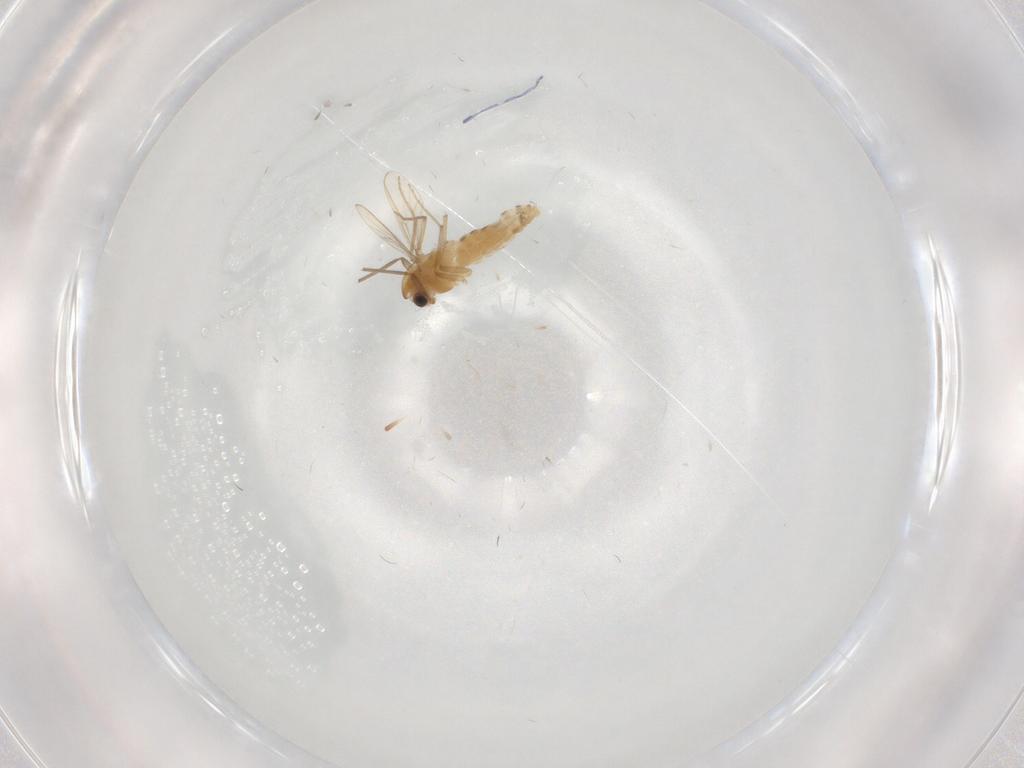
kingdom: Animalia
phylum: Arthropoda
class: Insecta
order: Diptera
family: Chironomidae
